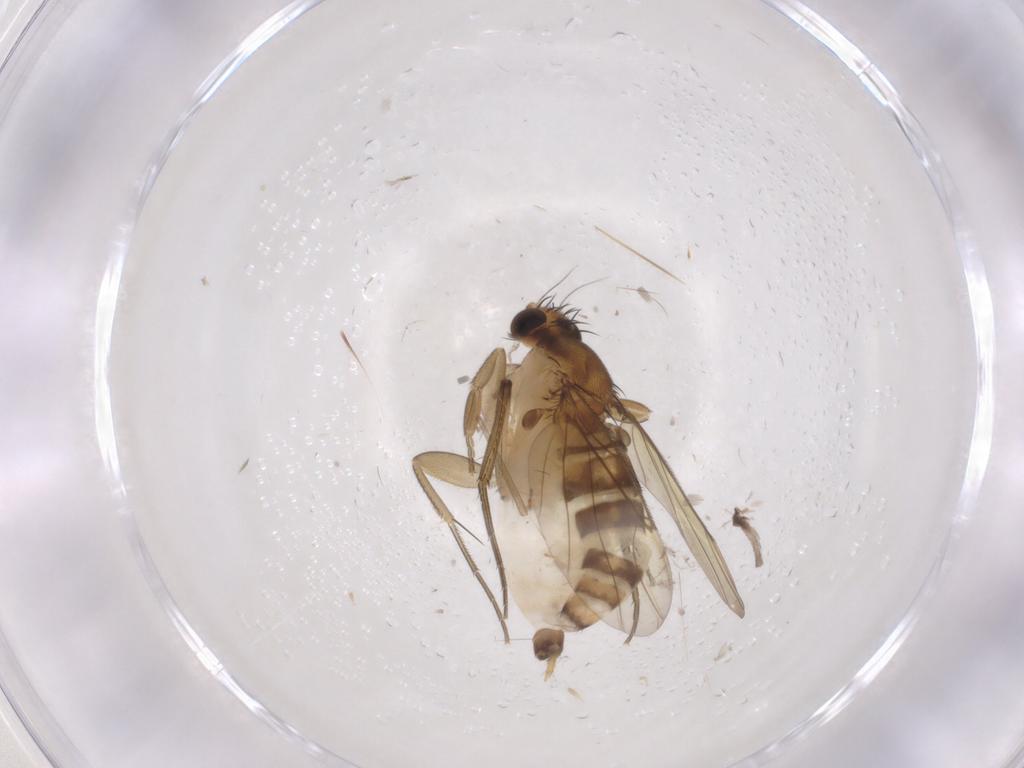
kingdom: Animalia
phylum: Arthropoda
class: Insecta
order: Diptera
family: Phoridae
